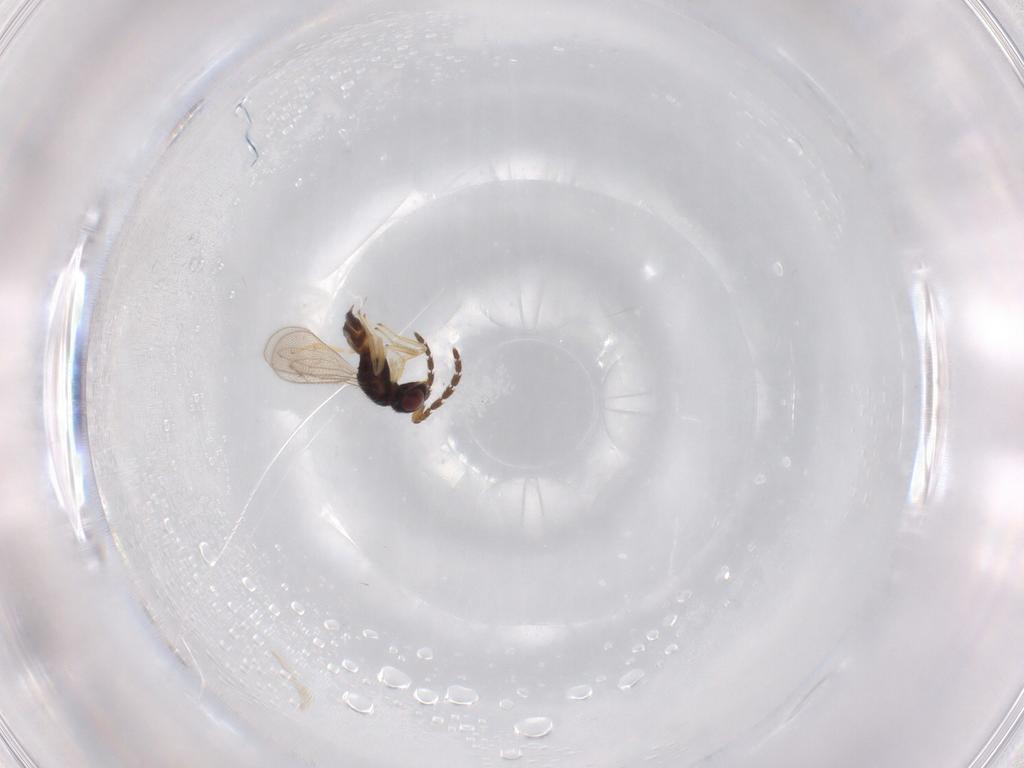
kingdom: Animalia
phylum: Arthropoda
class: Insecta
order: Hymenoptera
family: Eulophidae
